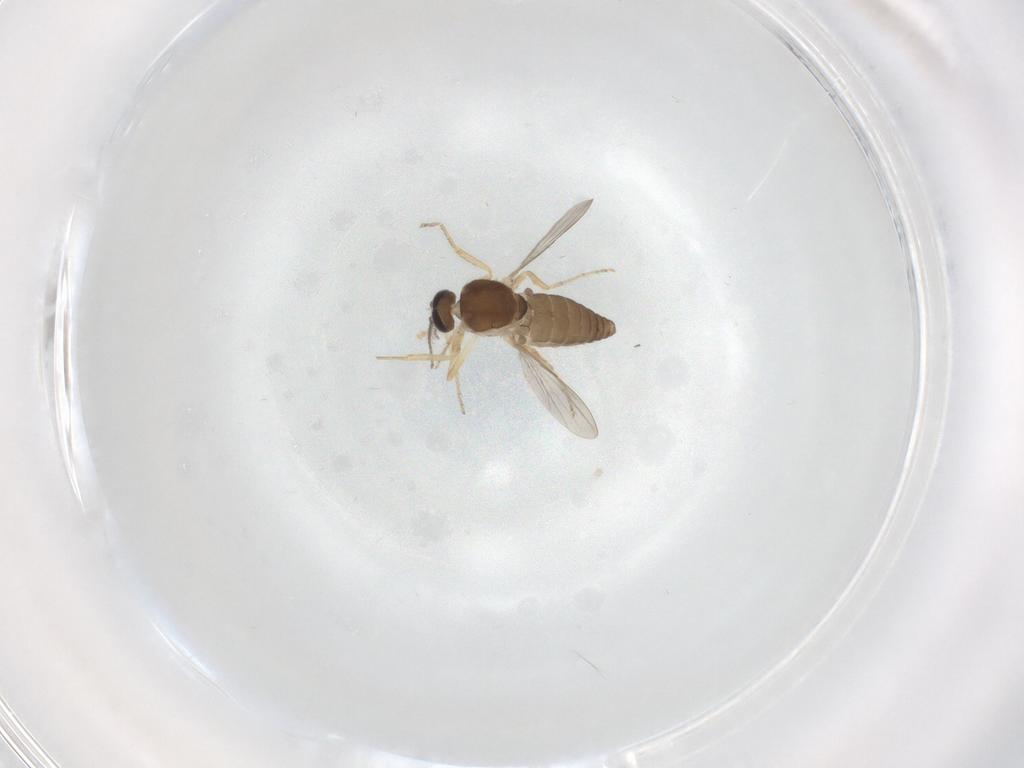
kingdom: Animalia
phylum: Arthropoda
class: Insecta
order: Diptera
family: Ceratopogonidae
